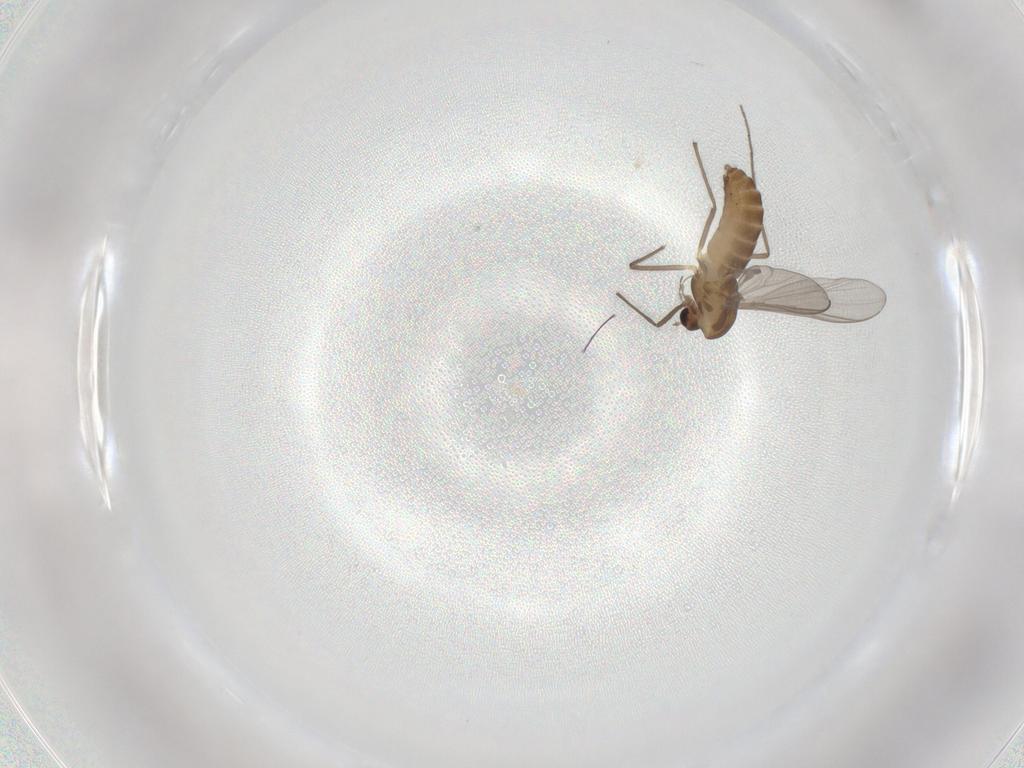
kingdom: Animalia
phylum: Arthropoda
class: Insecta
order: Diptera
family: Chironomidae
